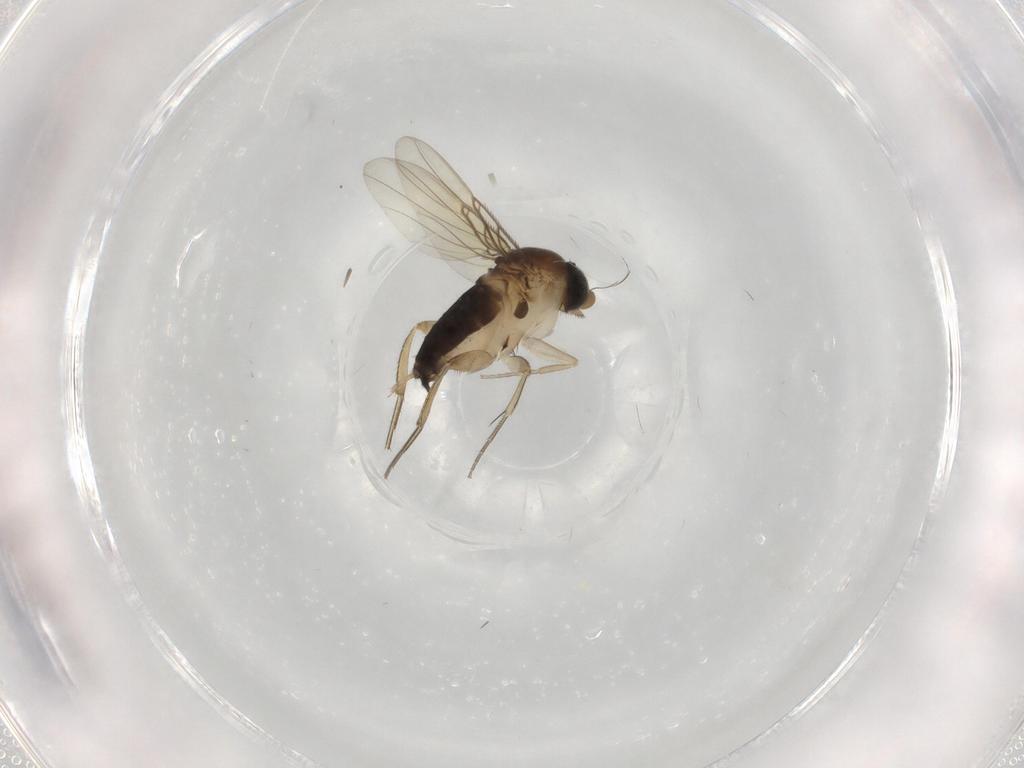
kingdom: Animalia
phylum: Arthropoda
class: Insecta
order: Diptera
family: Phoridae
